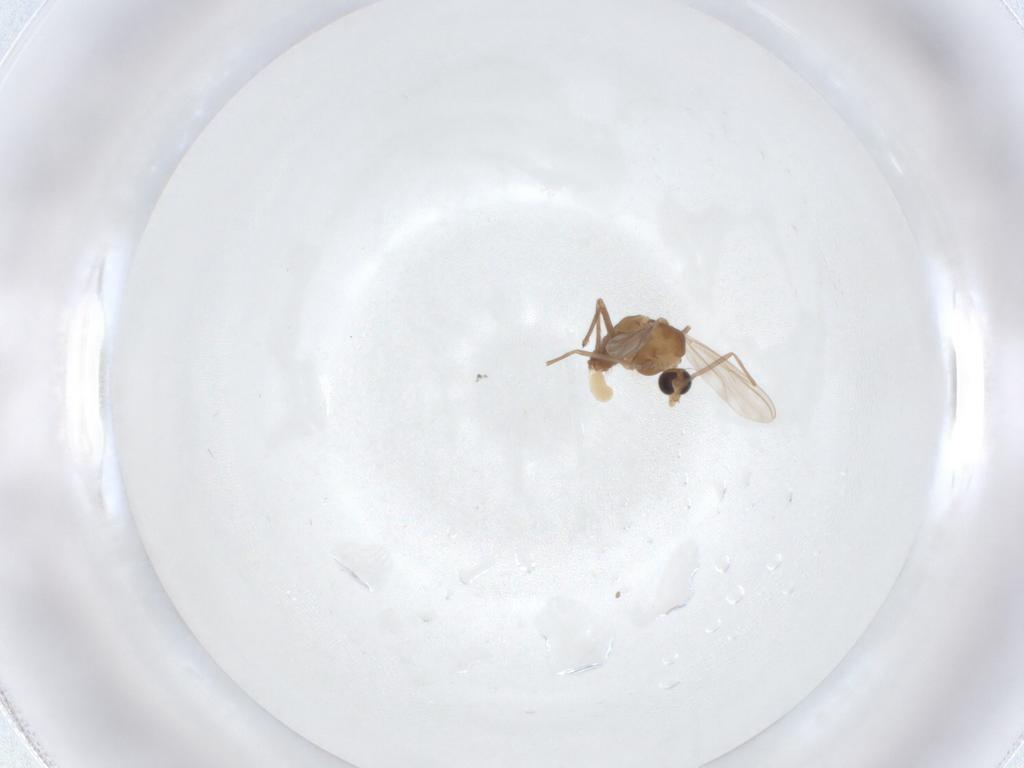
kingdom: Animalia
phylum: Arthropoda
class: Insecta
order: Diptera
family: Chironomidae
